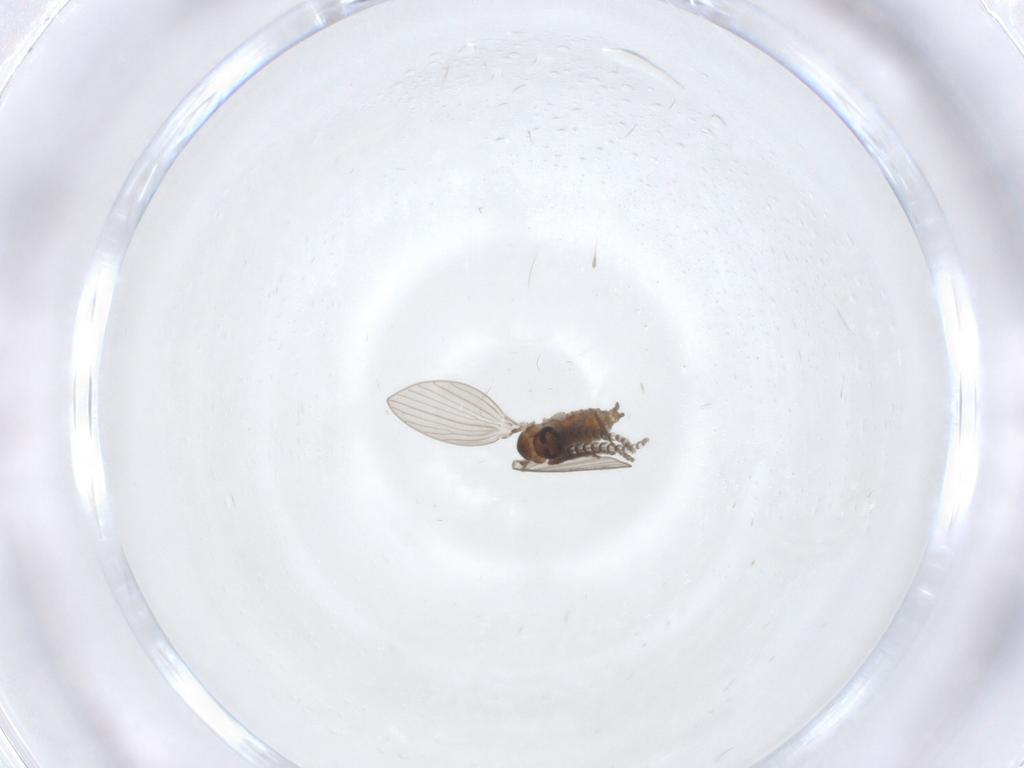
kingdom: Animalia
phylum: Arthropoda
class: Insecta
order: Diptera
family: Psychodidae
